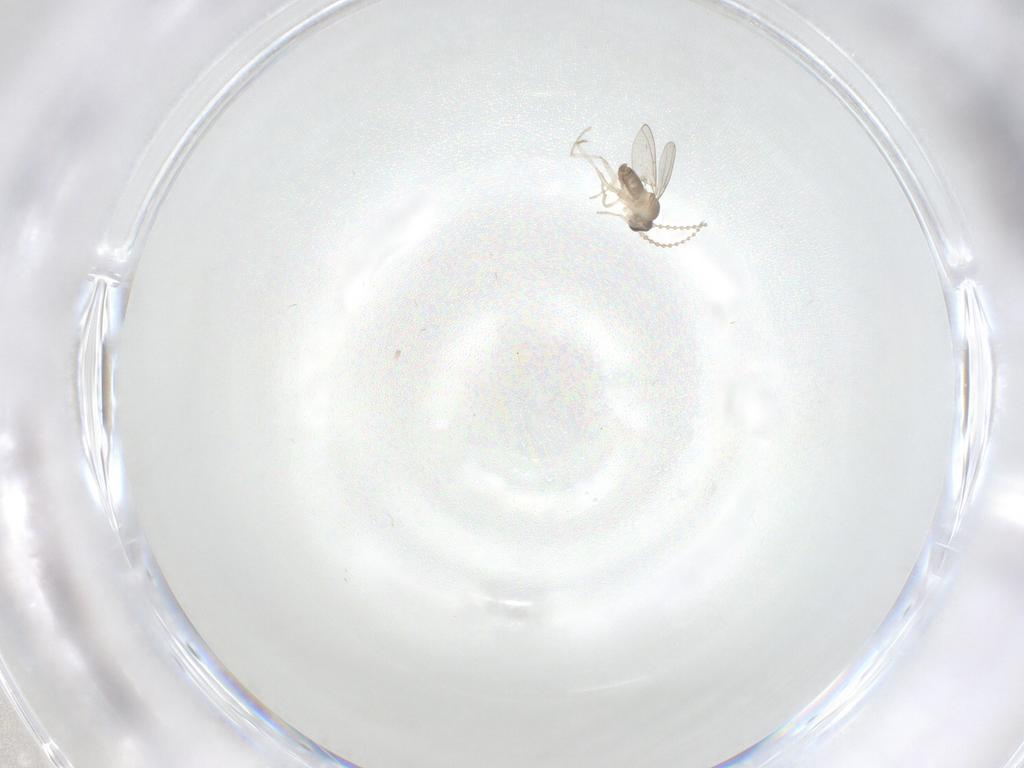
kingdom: Animalia
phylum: Arthropoda
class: Insecta
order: Diptera
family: Cecidomyiidae
